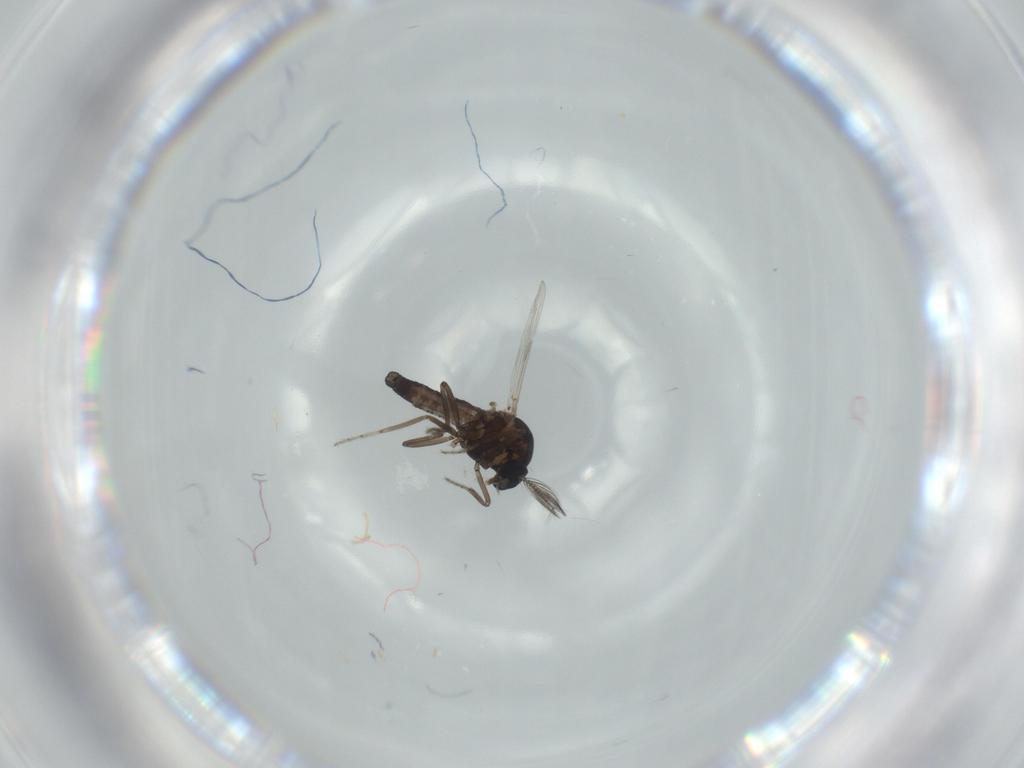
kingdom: Animalia
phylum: Arthropoda
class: Insecta
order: Diptera
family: Ceratopogonidae
